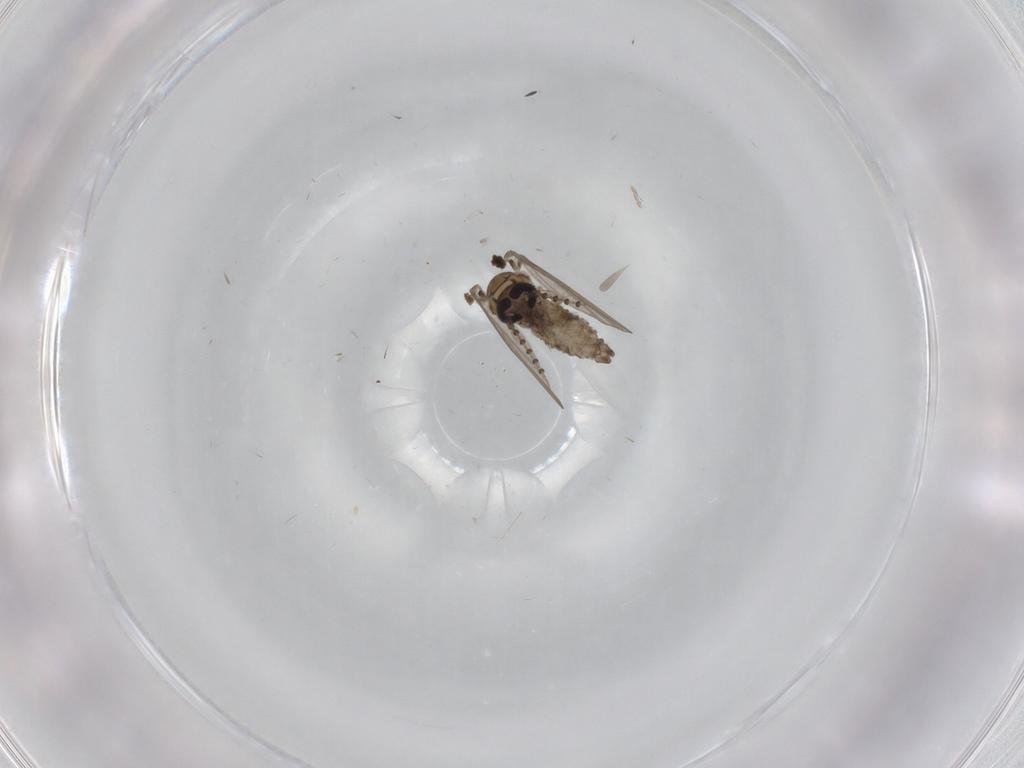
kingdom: Animalia
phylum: Arthropoda
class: Insecta
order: Diptera
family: Psychodidae
